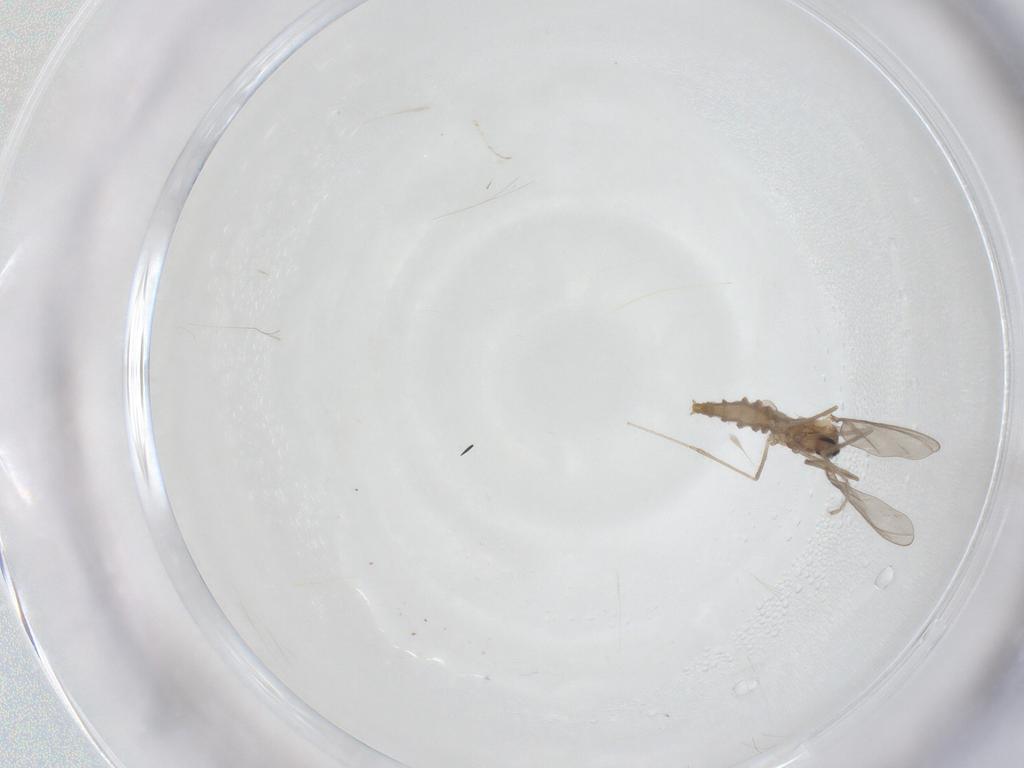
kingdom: Animalia
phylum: Arthropoda
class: Insecta
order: Diptera
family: Cecidomyiidae
